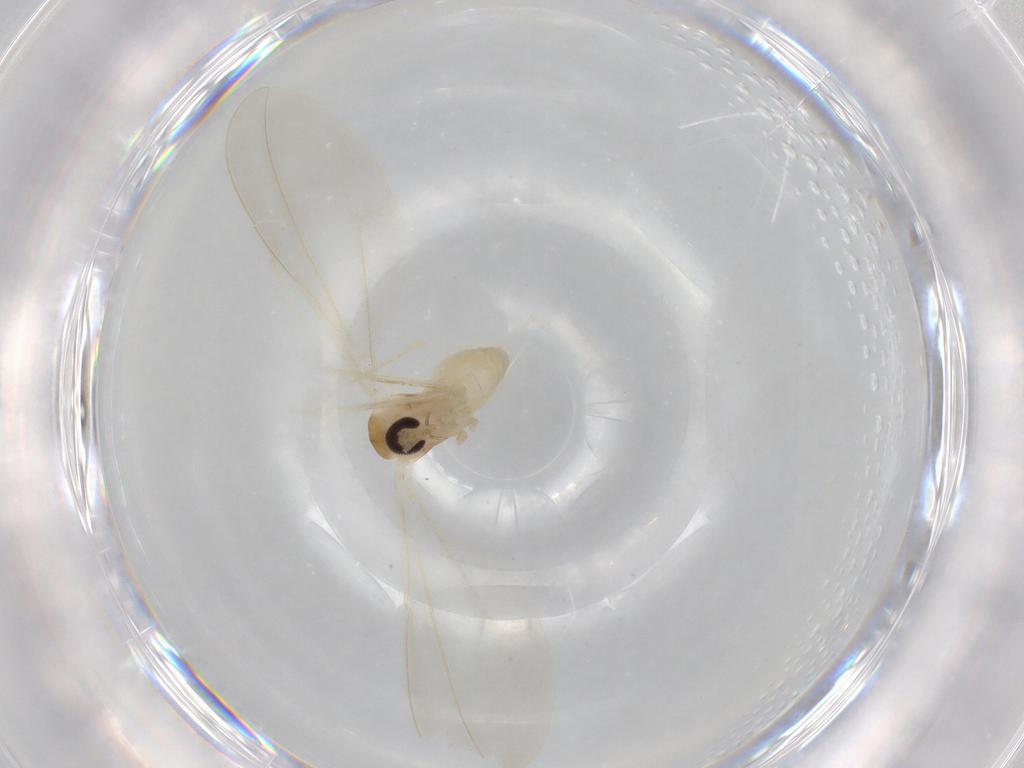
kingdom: Animalia
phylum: Arthropoda
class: Insecta
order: Diptera
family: Cecidomyiidae
